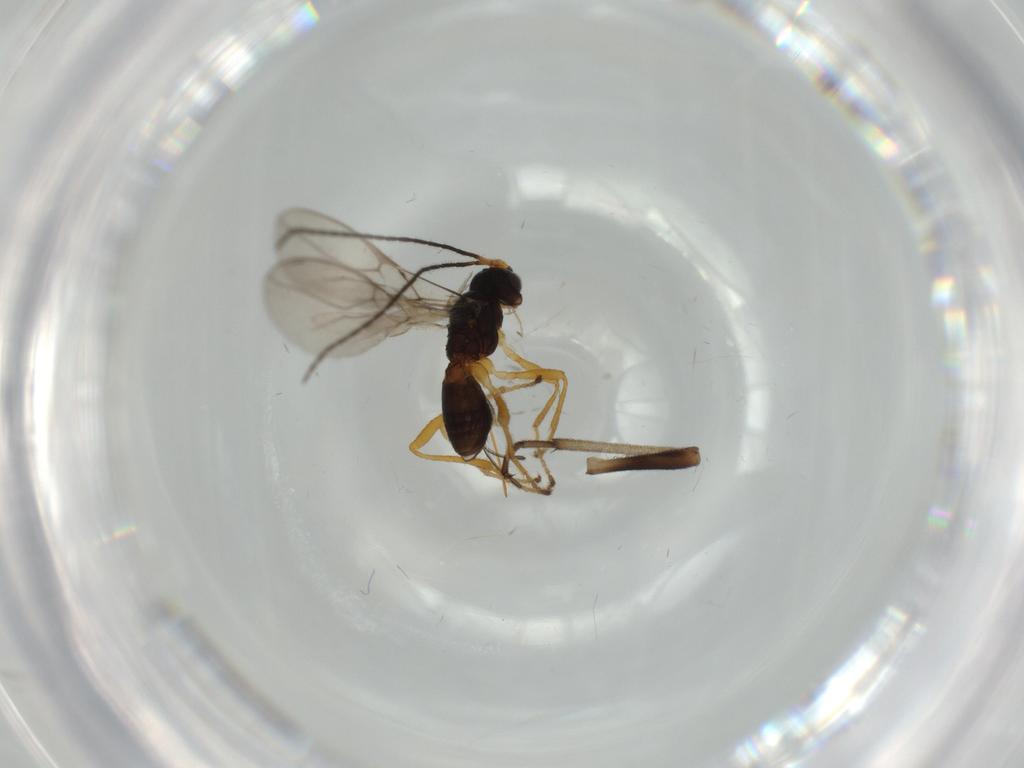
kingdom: Animalia
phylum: Arthropoda
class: Insecta
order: Hymenoptera
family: Braconidae
